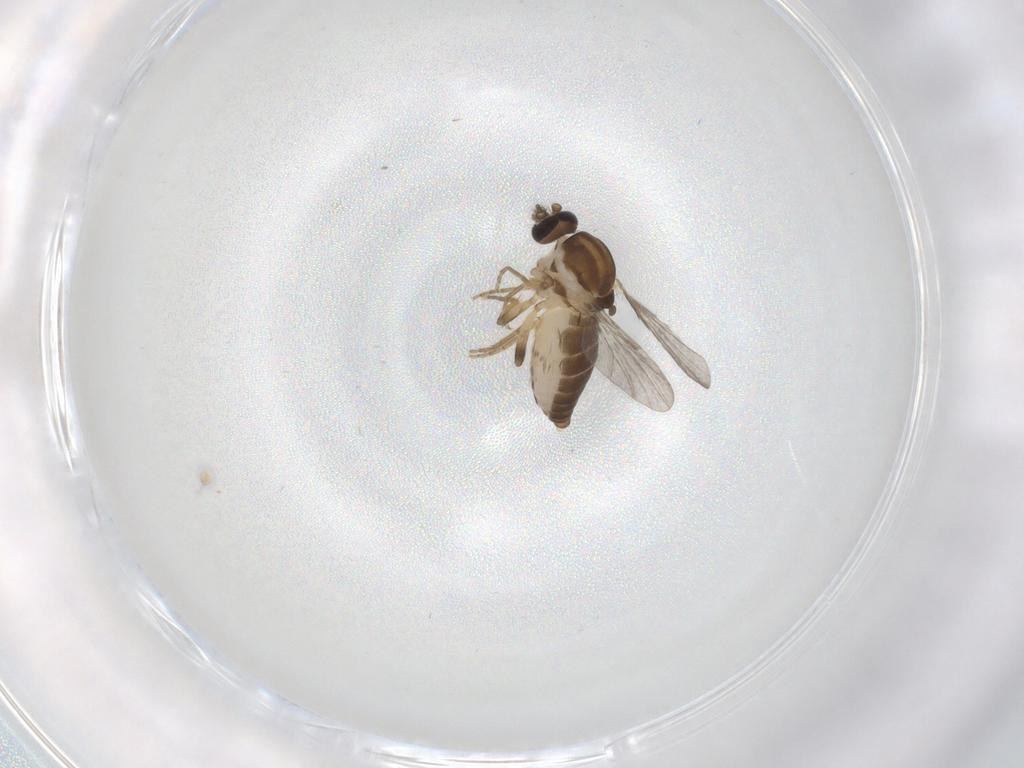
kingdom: Animalia
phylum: Arthropoda
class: Insecta
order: Diptera
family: Ceratopogonidae
